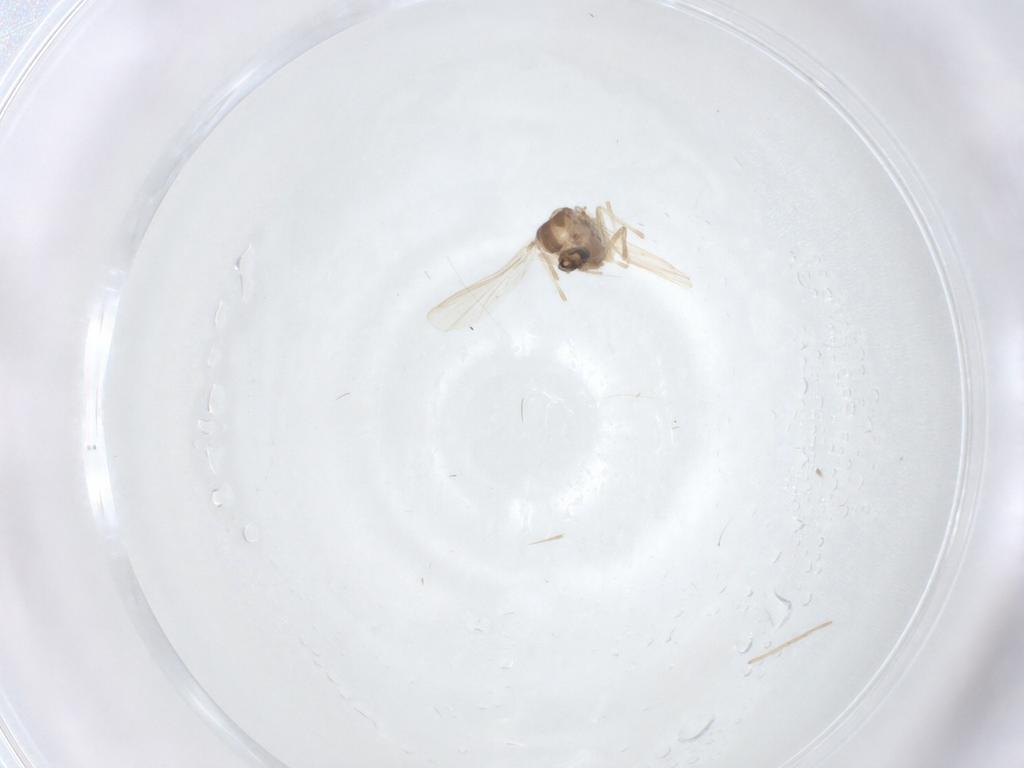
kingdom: Animalia
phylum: Arthropoda
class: Insecta
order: Diptera
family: Chironomidae
